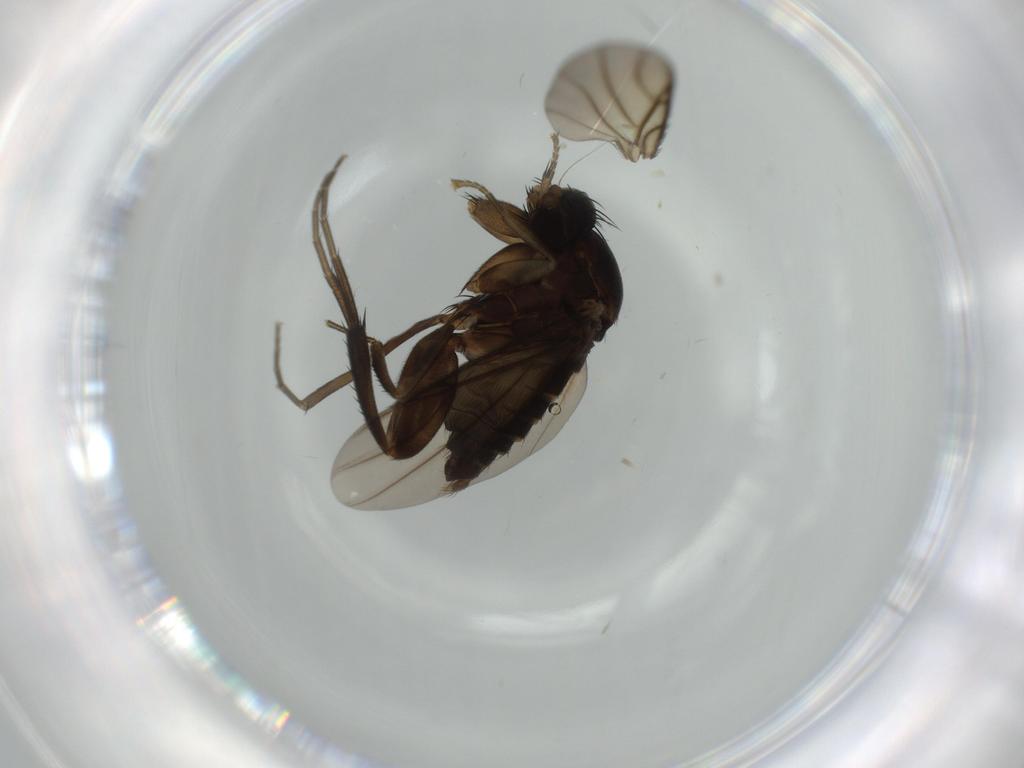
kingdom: Animalia
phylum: Arthropoda
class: Insecta
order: Diptera
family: Phoridae
